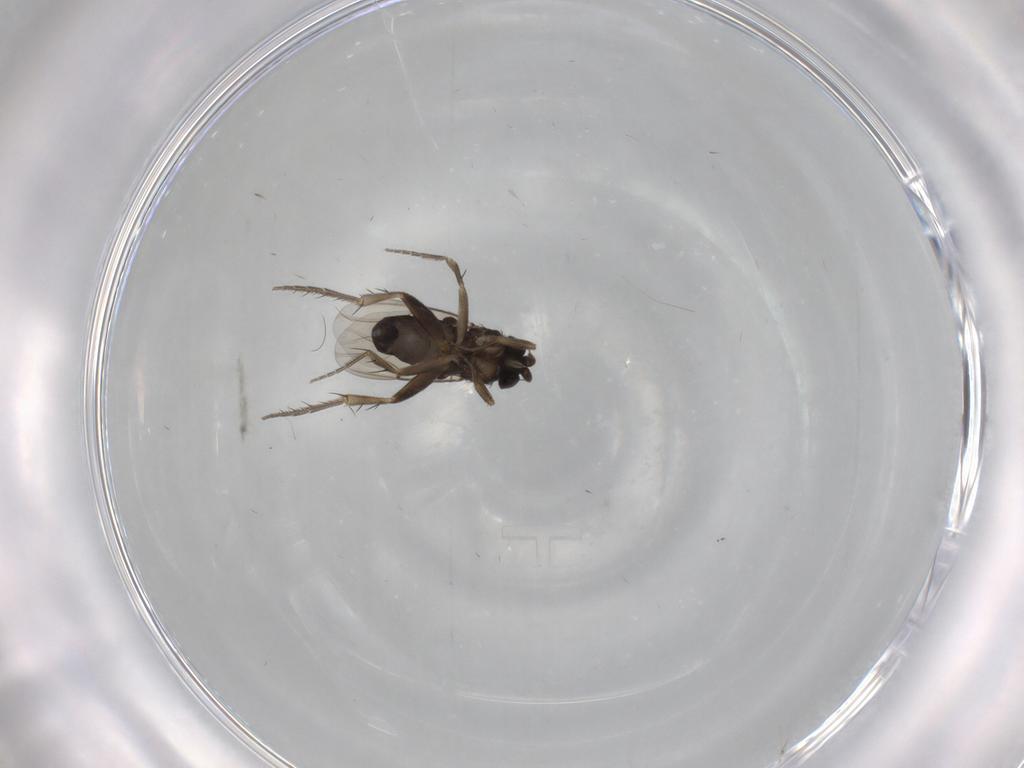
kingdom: Animalia
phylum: Arthropoda
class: Insecta
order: Diptera
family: Phoridae
